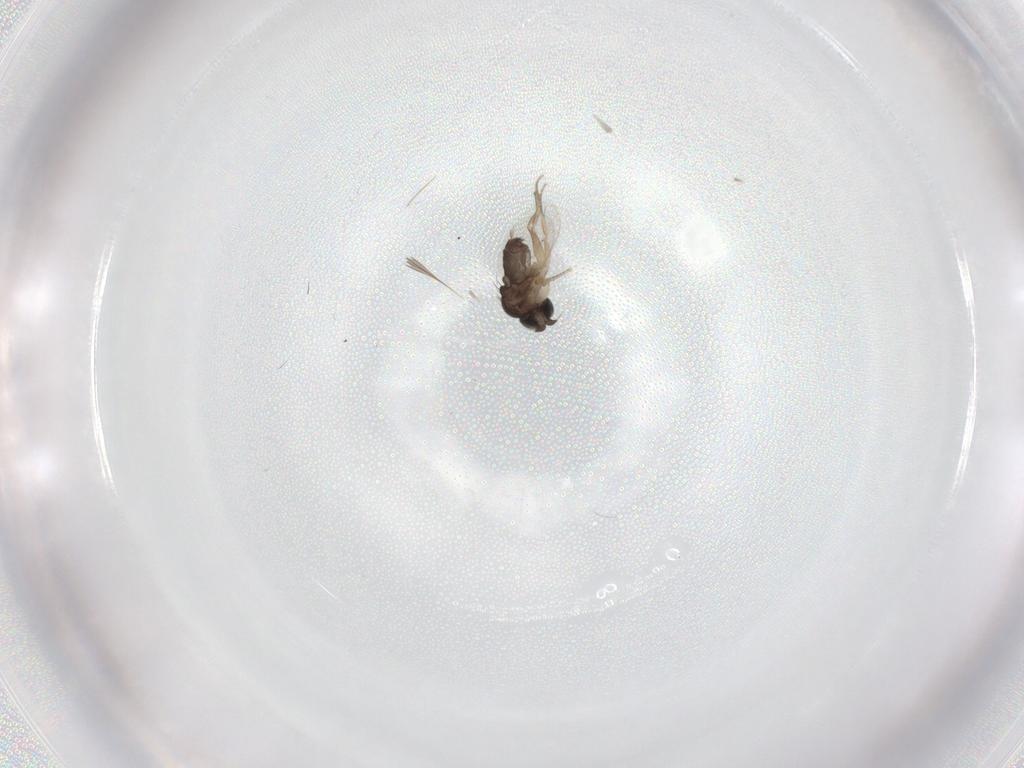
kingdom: Animalia
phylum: Arthropoda
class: Insecta
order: Diptera
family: Phoridae
